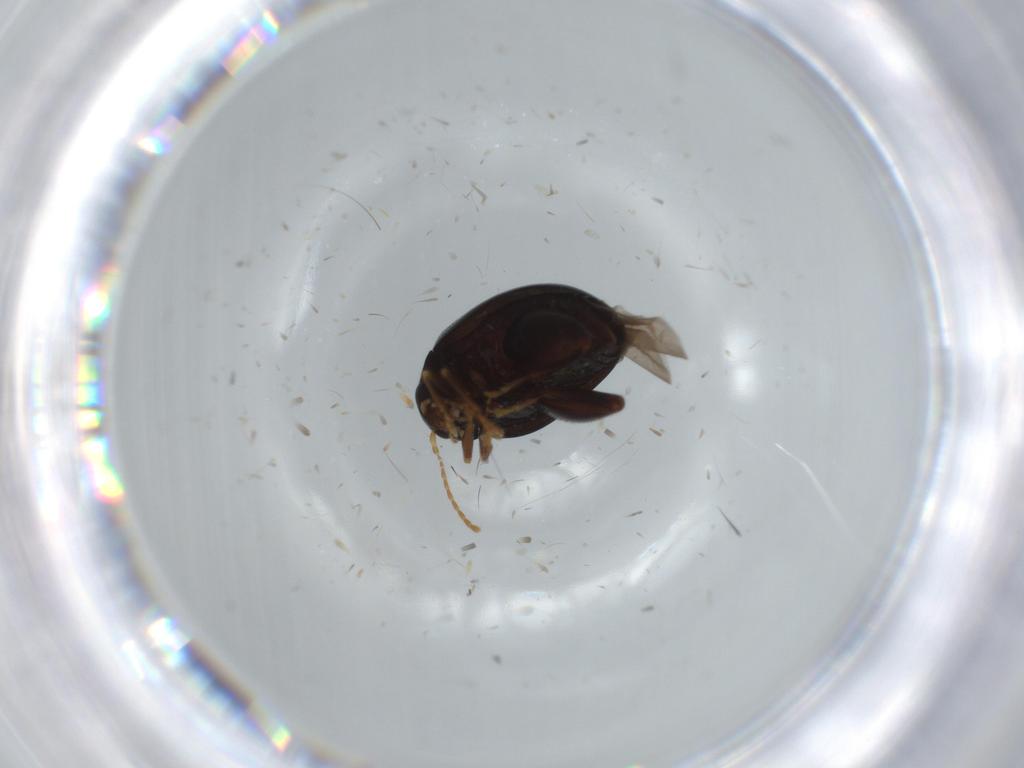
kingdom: Animalia
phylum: Arthropoda
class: Insecta
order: Coleoptera
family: Chrysomelidae
